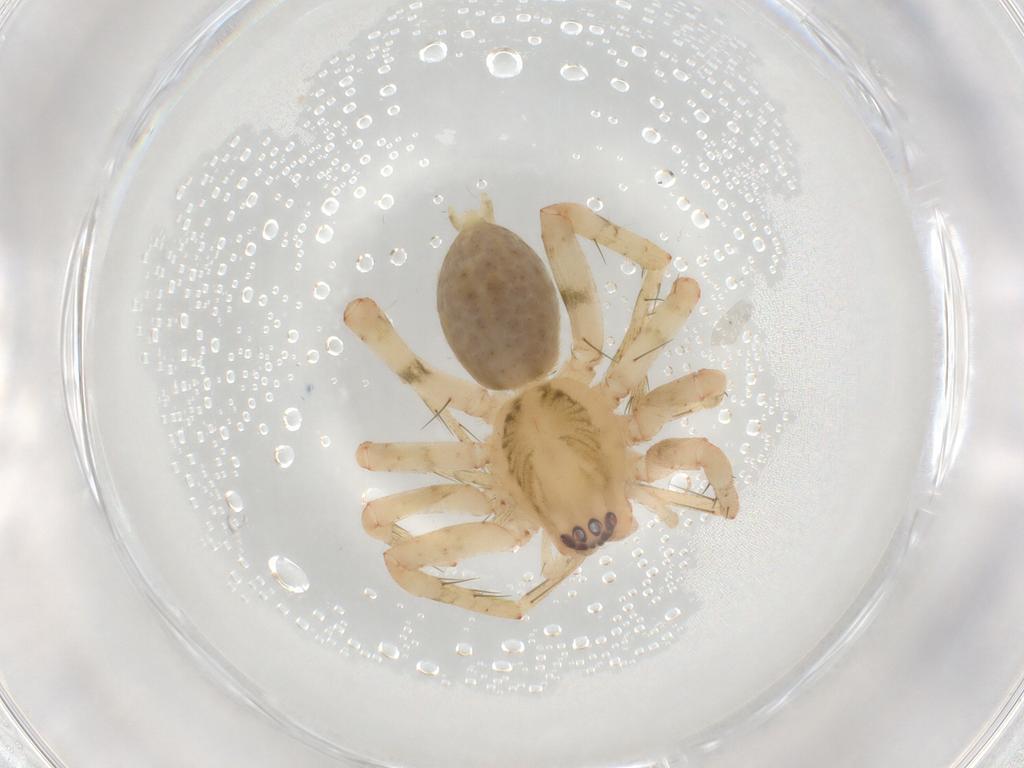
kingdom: Animalia
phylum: Arthropoda
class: Arachnida
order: Araneae
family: Anyphaenidae
